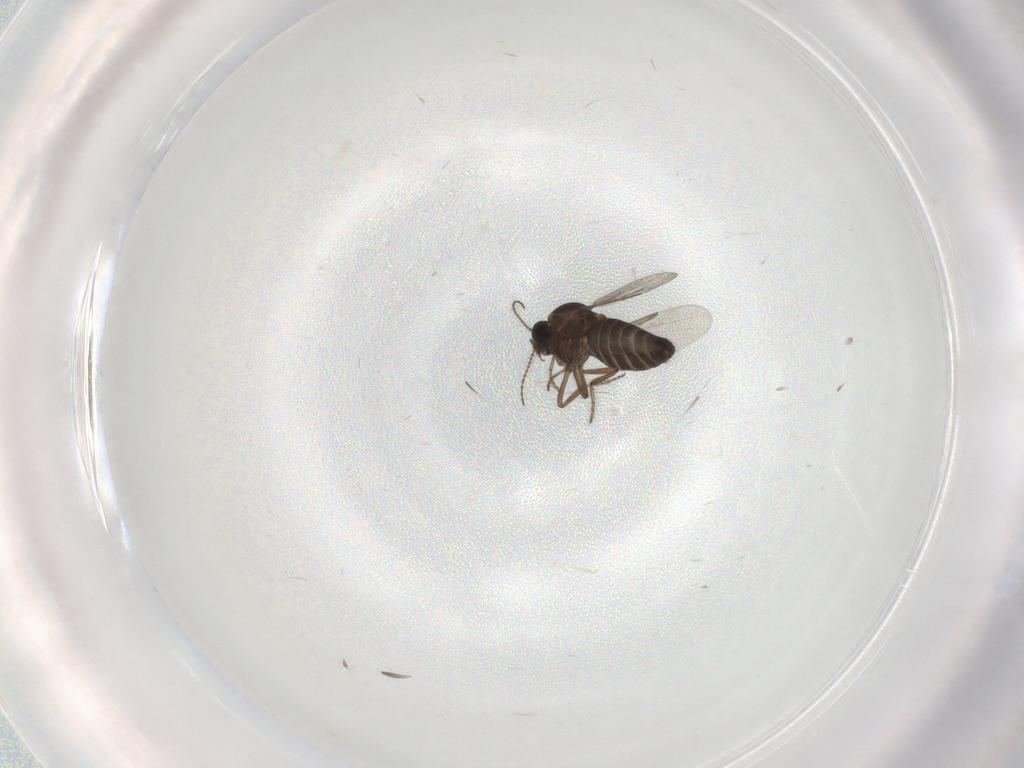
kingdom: Animalia
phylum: Arthropoda
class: Insecta
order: Diptera
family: Ceratopogonidae
